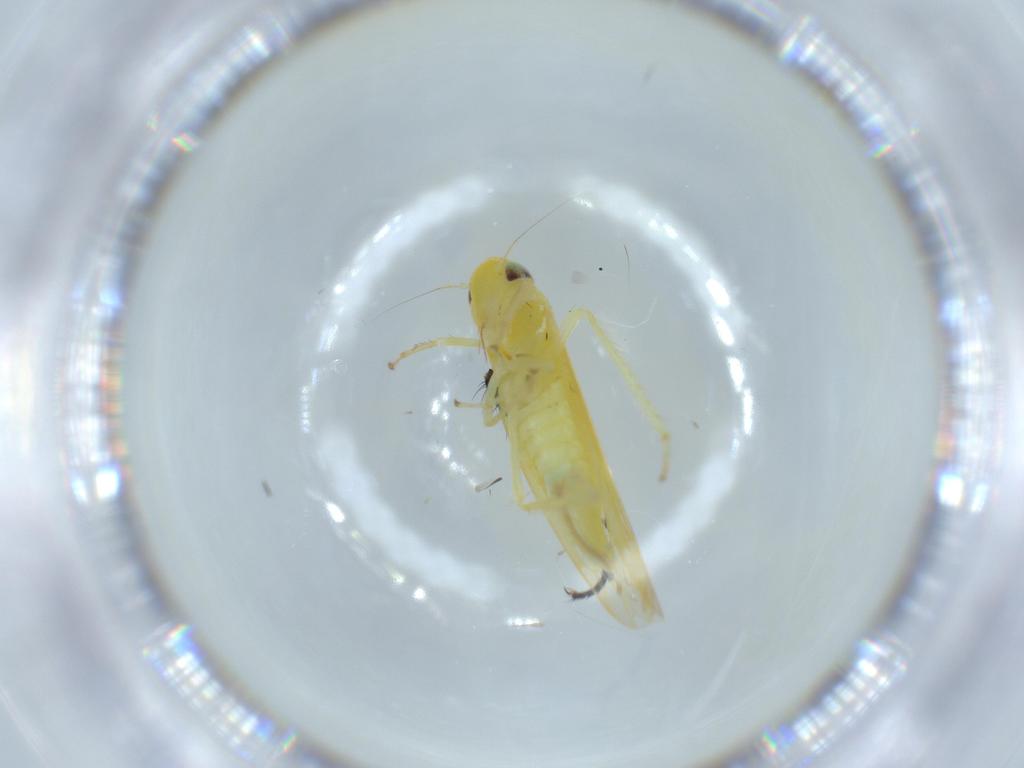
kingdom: Animalia
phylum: Arthropoda
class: Insecta
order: Hemiptera
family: Cicadellidae
